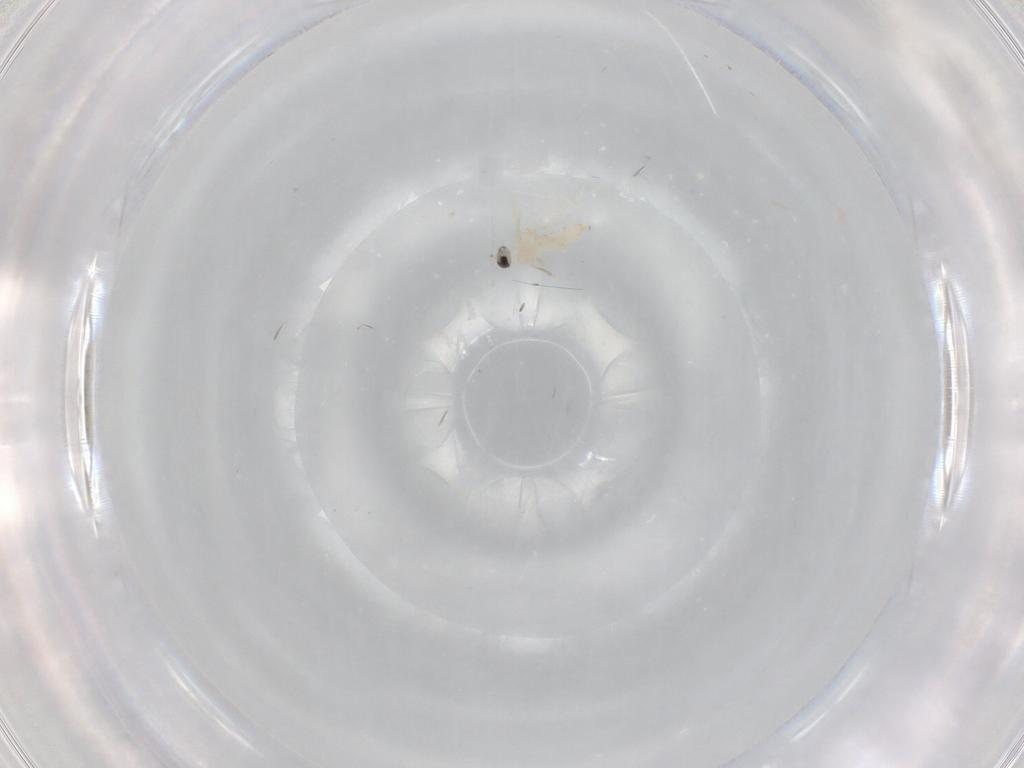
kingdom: Animalia
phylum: Arthropoda
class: Insecta
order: Diptera
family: Cecidomyiidae
